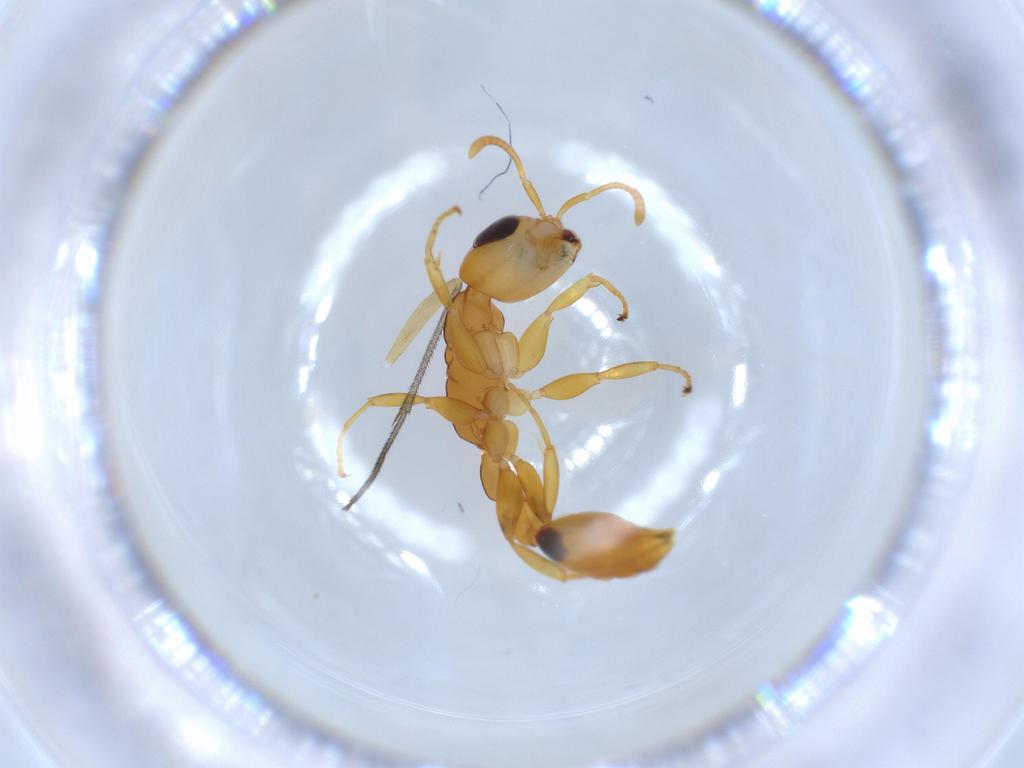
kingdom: Animalia
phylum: Arthropoda
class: Insecta
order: Hymenoptera
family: Formicidae
